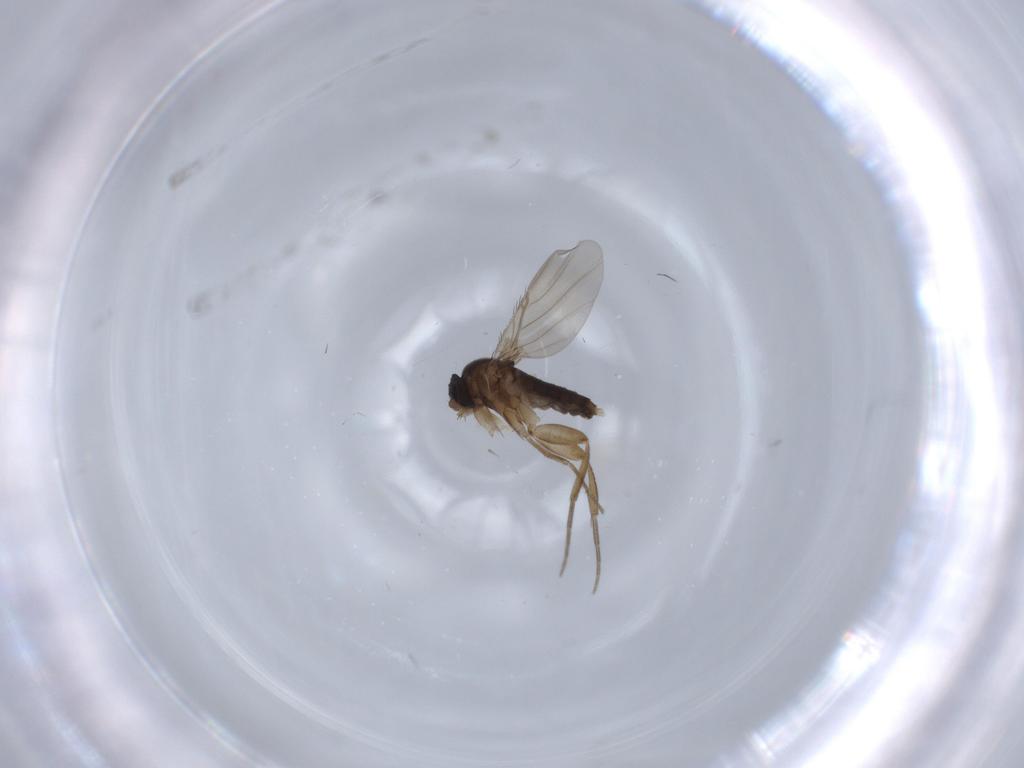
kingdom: Animalia
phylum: Arthropoda
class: Insecta
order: Diptera
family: Phoridae
